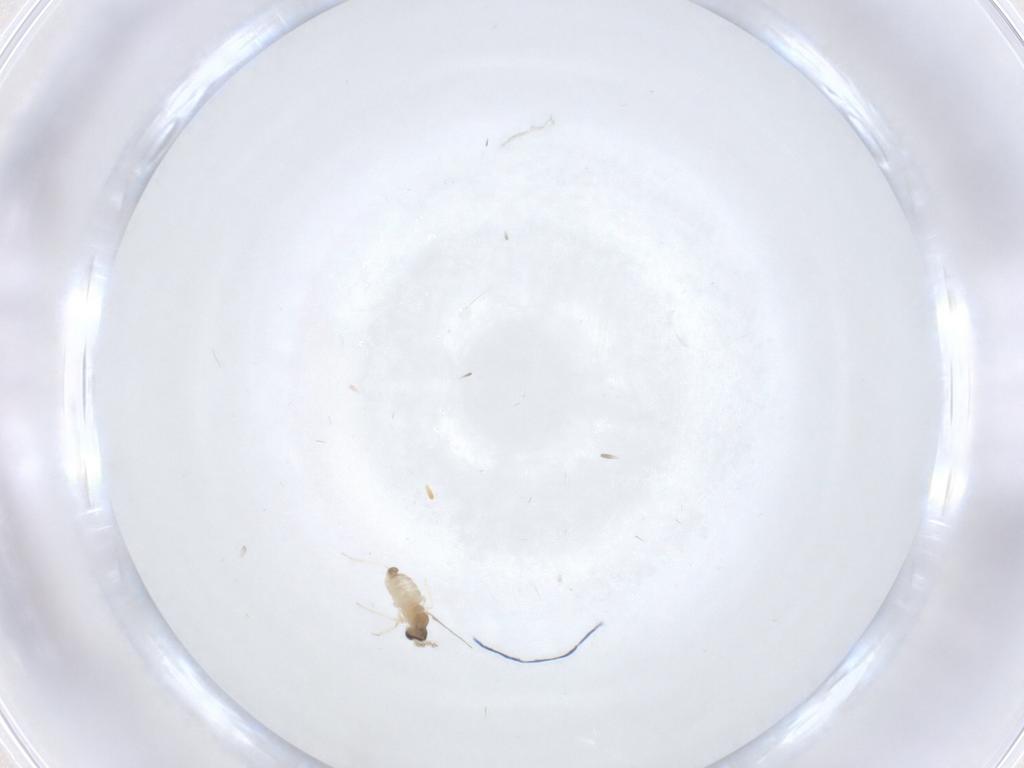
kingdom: Animalia
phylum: Arthropoda
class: Insecta
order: Diptera
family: Cecidomyiidae
